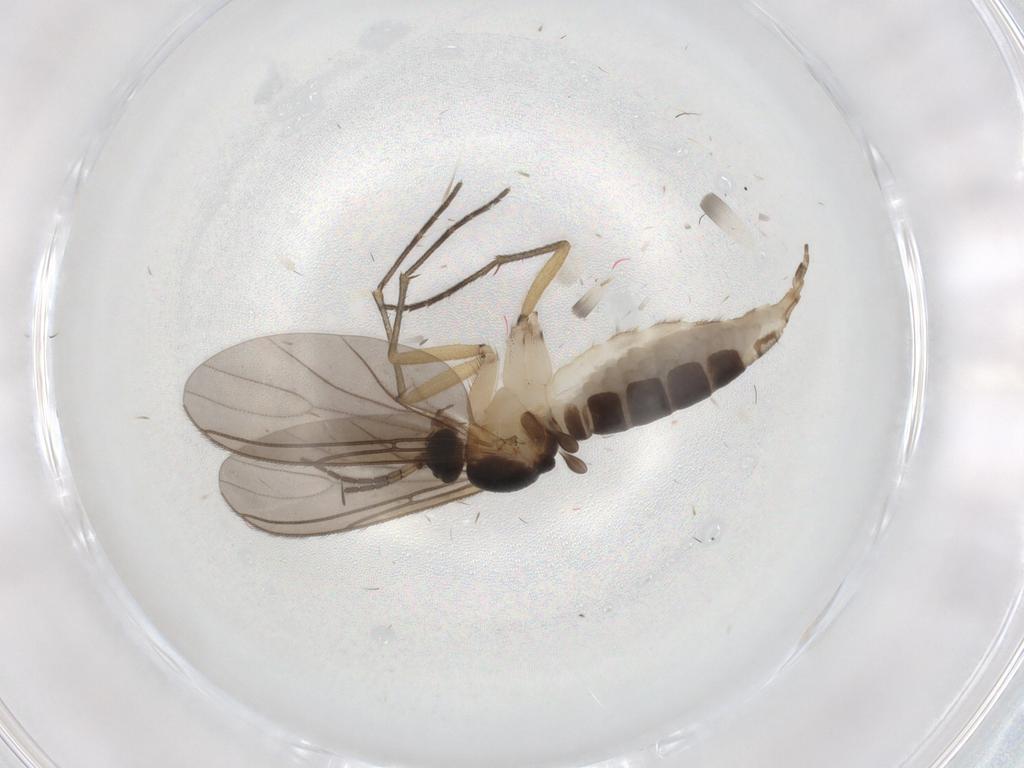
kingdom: Animalia
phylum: Arthropoda
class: Insecta
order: Diptera
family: Sciaridae
